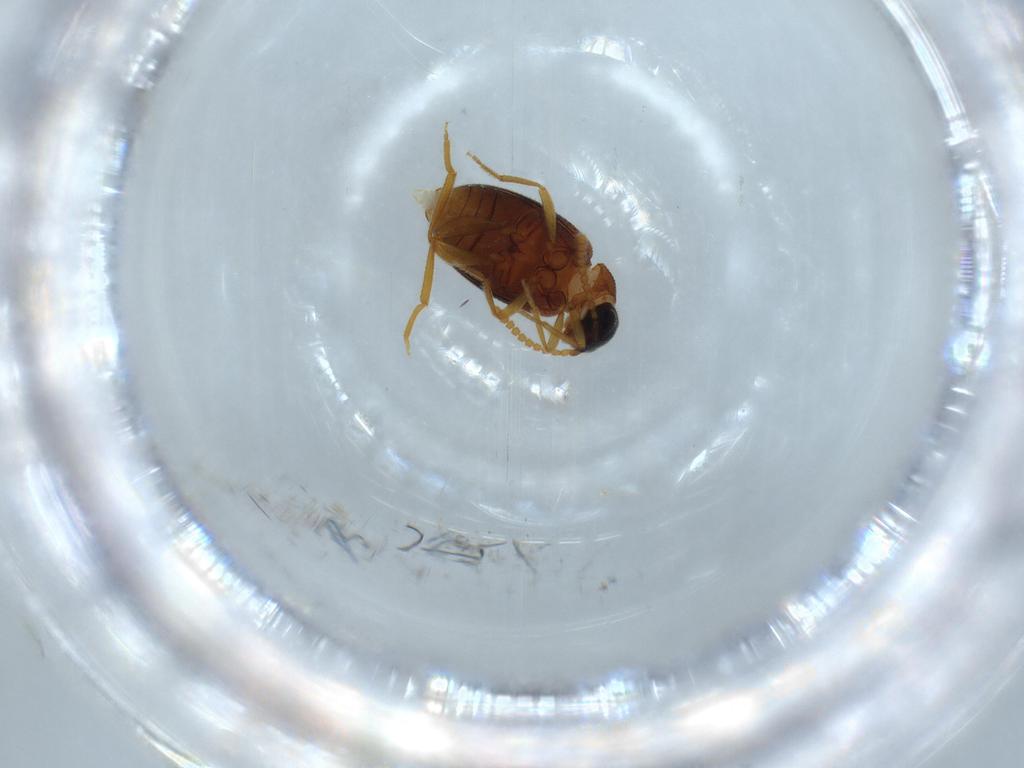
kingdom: Animalia
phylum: Arthropoda
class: Insecta
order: Coleoptera
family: Aderidae
